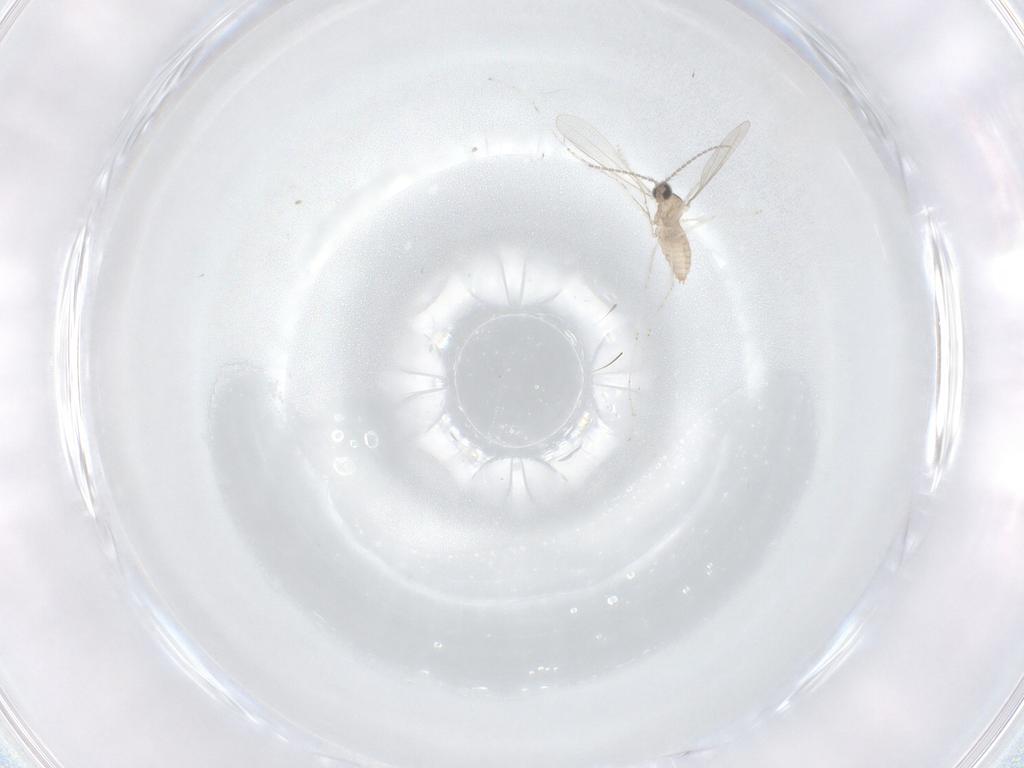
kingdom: Animalia
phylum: Arthropoda
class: Insecta
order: Diptera
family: Cecidomyiidae
